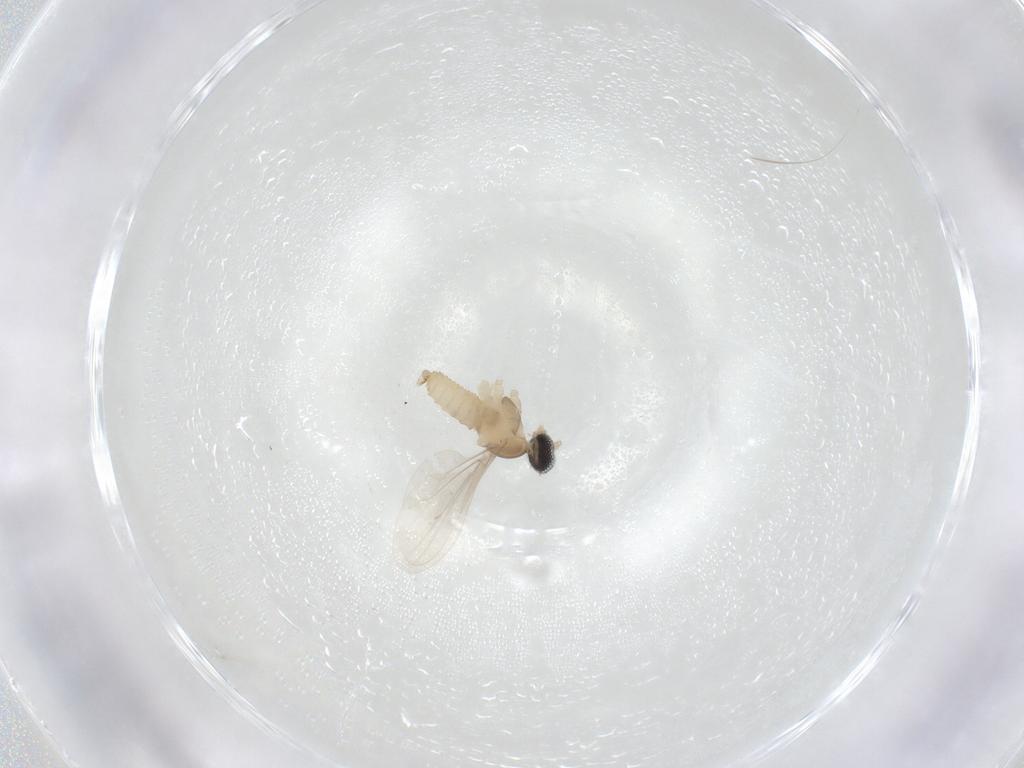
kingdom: Animalia
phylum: Arthropoda
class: Insecta
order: Diptera
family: Cecidomyiidae
